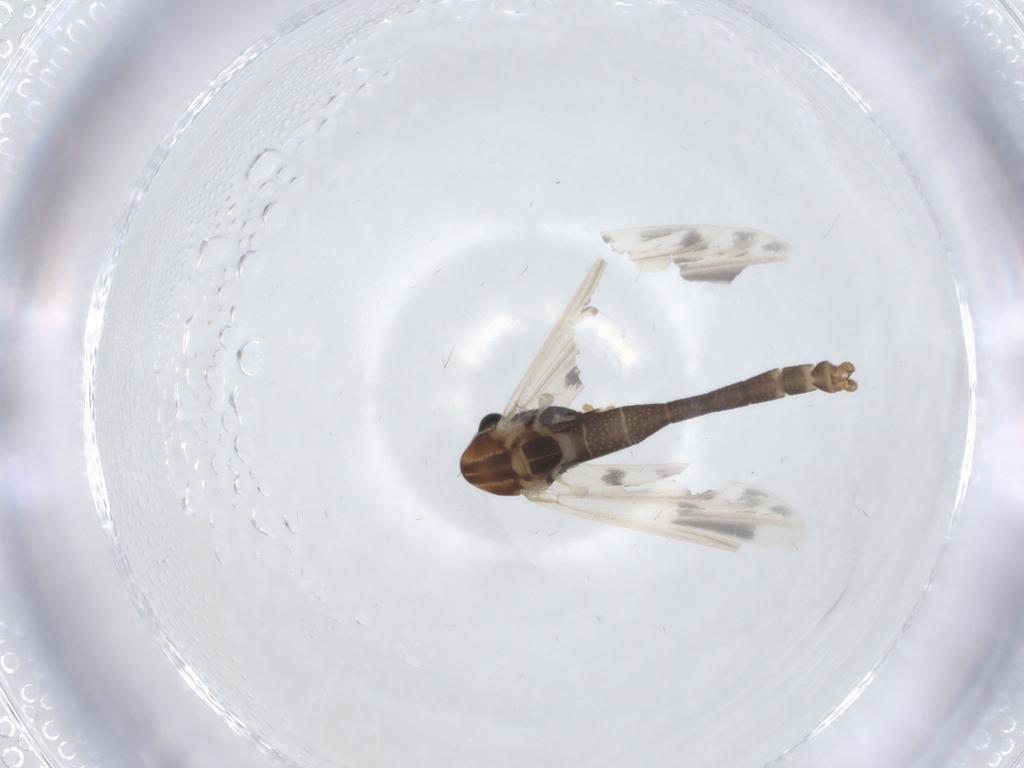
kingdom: Animalia
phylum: Arthropoda
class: Insecta
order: Diptera
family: Chironomidae
